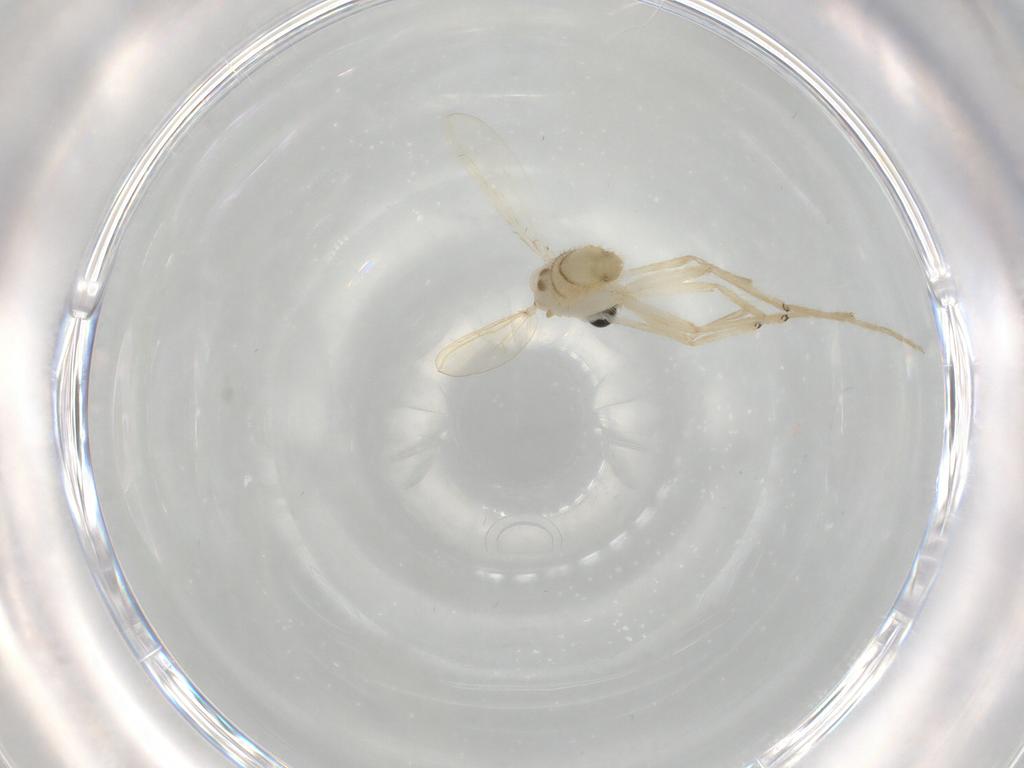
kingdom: Animalia
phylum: Arthropoda
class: Insecta
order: Diptera
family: Chironomidae
